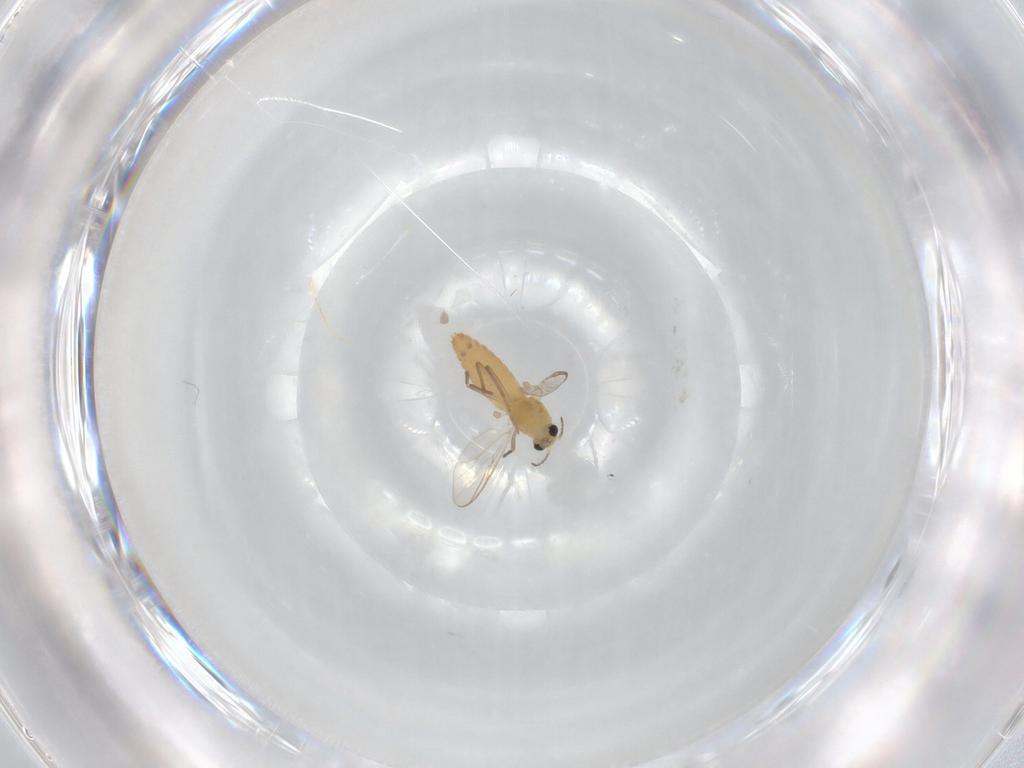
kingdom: Animalia
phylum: Arthropoda
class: Insecta
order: Diptera
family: Chironomidae
